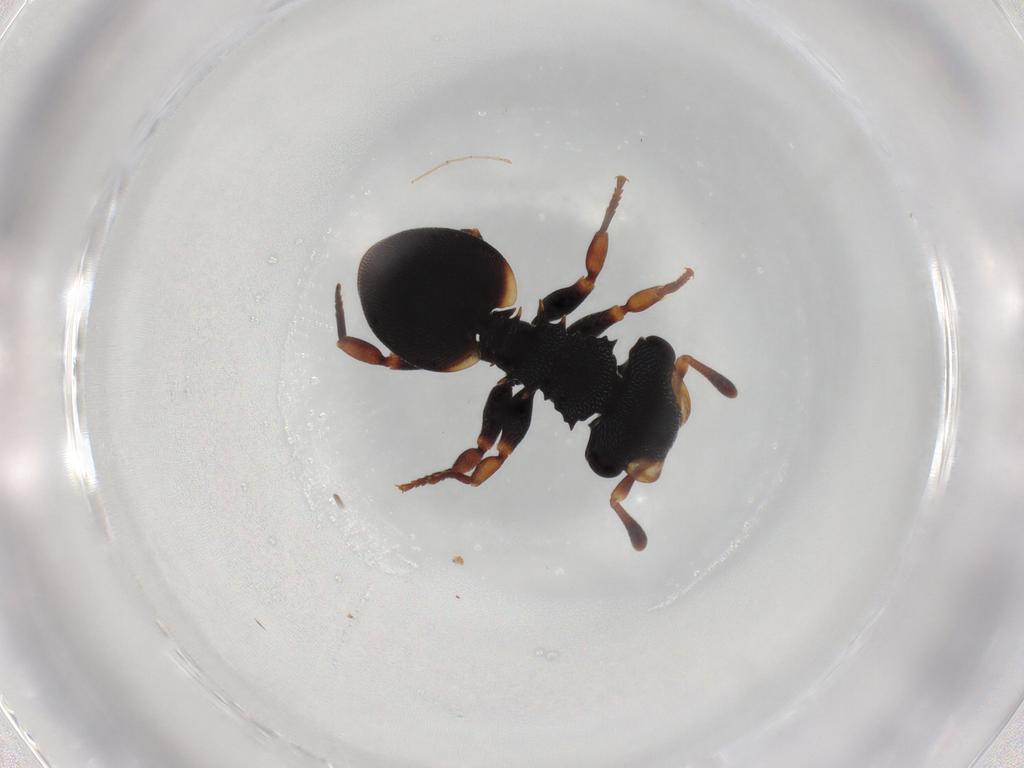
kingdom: Animalia
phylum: Arthropoda
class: Insecta
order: Hymenoptera
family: Formicidae
